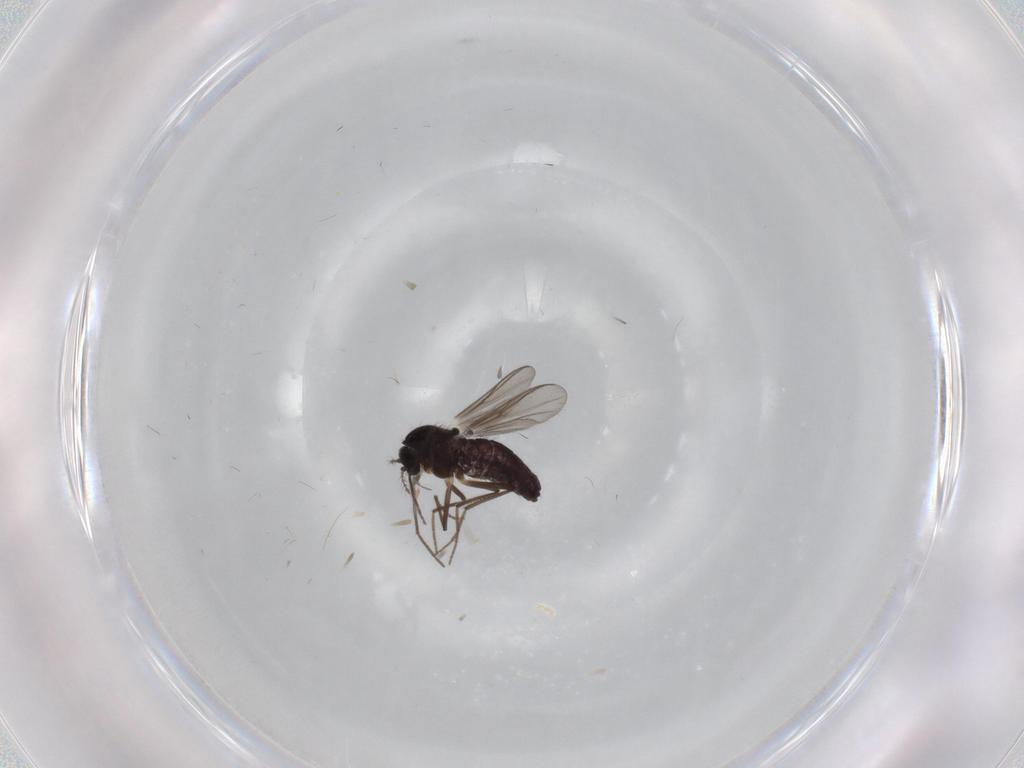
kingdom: Animalia
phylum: Arthropoda
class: Insecta
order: Diptera
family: Chironomidae
